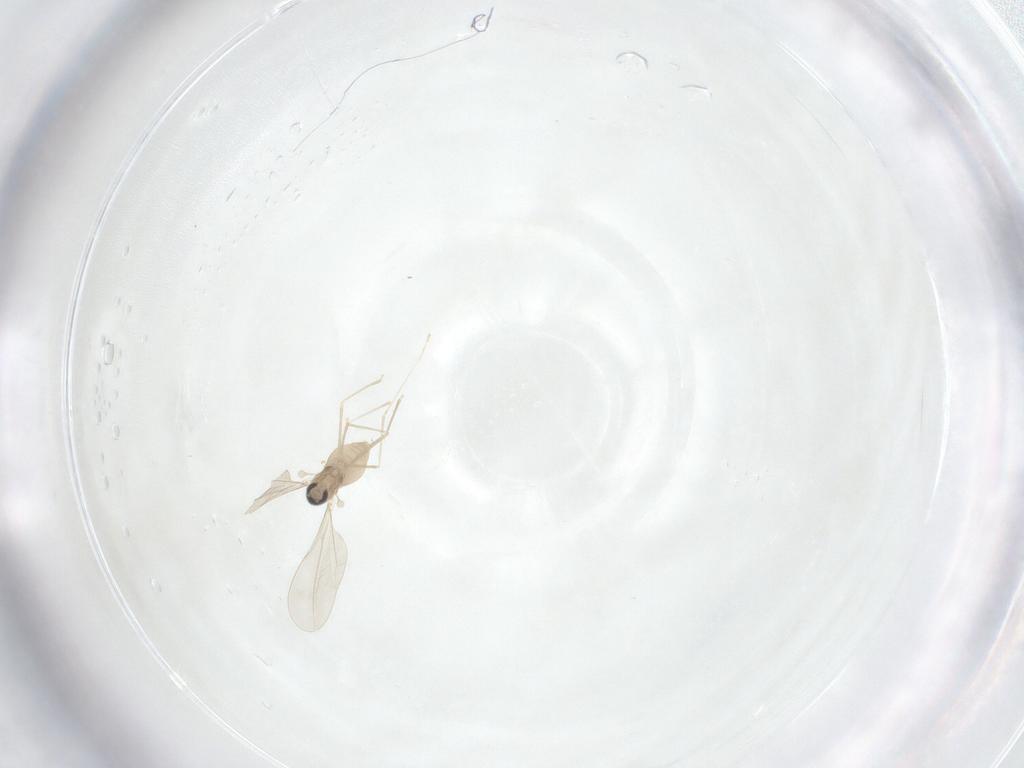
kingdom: Animalia
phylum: Arthropoda
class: Insecta
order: Diptera
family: Cecidomyiidae
